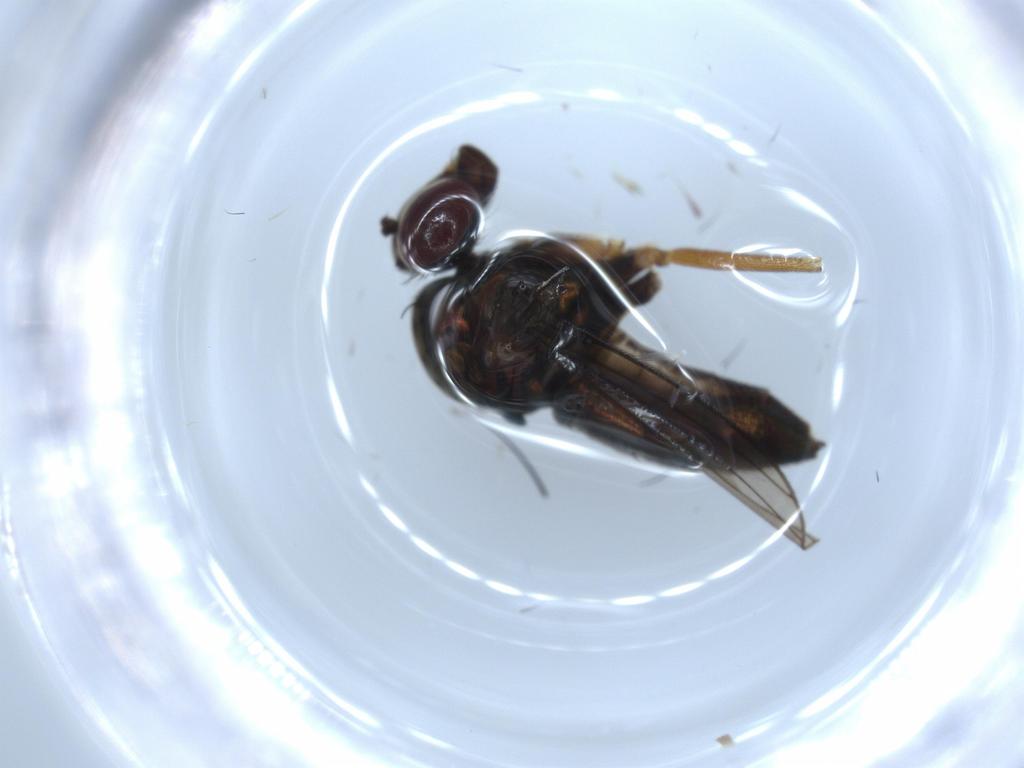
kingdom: Animalia
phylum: Arthropoda
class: Insecta
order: Diptera
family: Dolichopodidae
